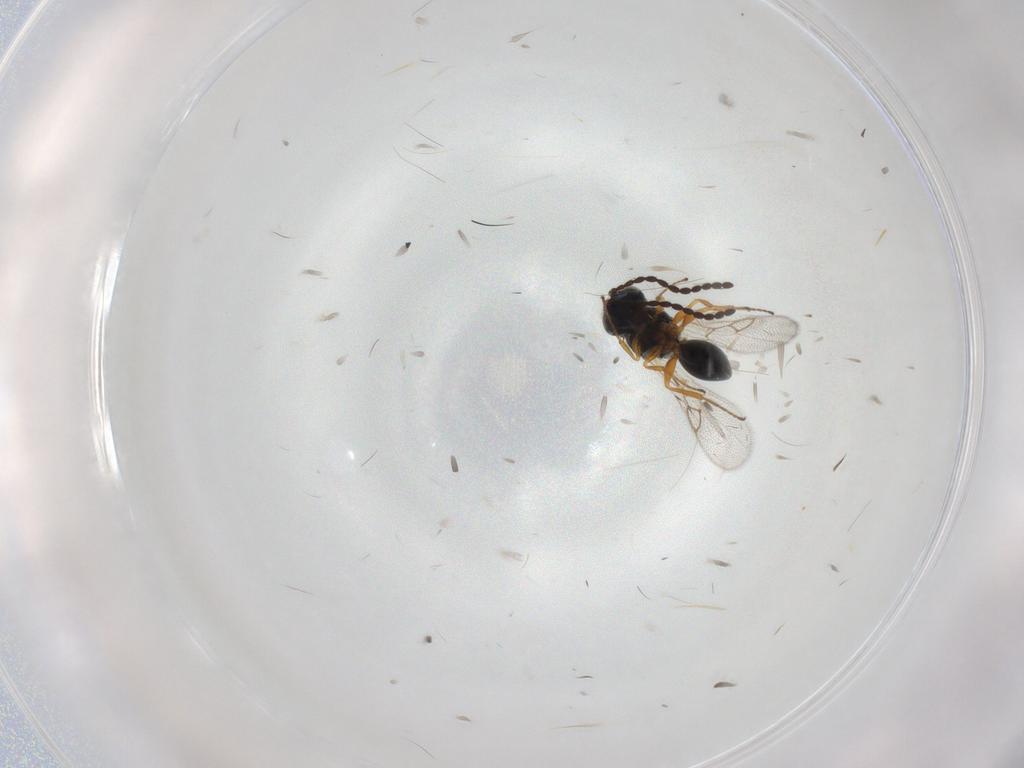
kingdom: Animalia
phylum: Arthropoda
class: Insecta
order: Hymenoptera
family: Figitidae
